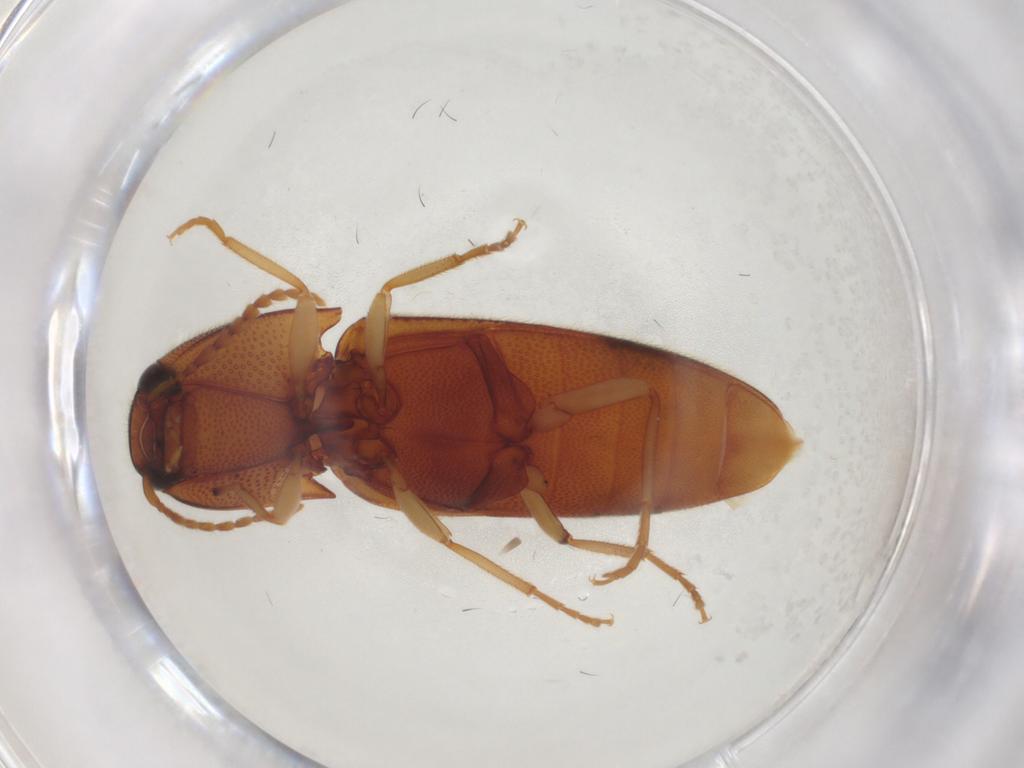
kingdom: Animalia
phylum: Arthropoda
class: Insecta
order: Coleoptera
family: Elateridae
